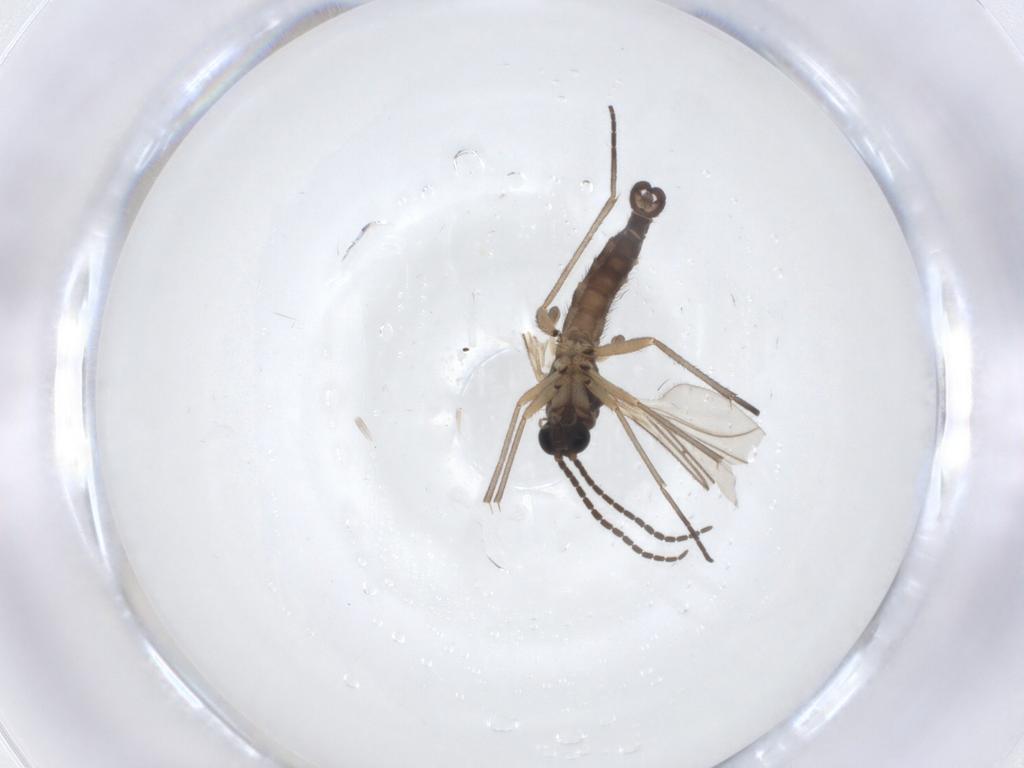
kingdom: Animalia
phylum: Arthropoda
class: Insecta
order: Diptera
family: Sciaridae
